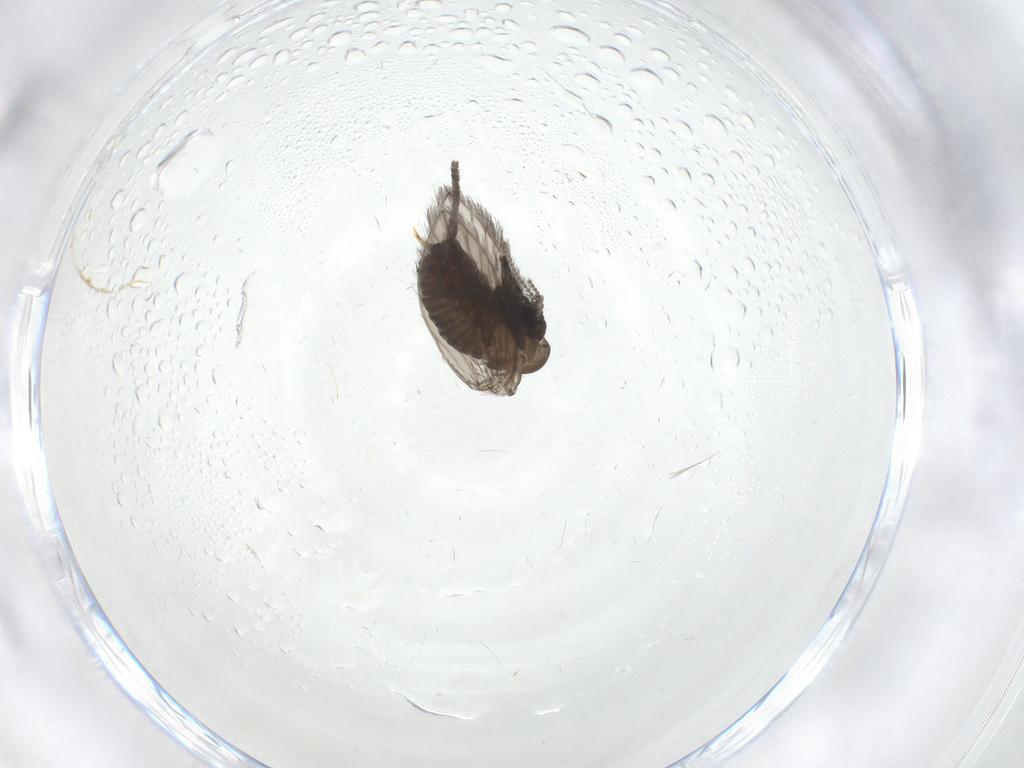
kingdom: Animalia
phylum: Arthropoda
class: Insecta
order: Diptera
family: Psychodidae
